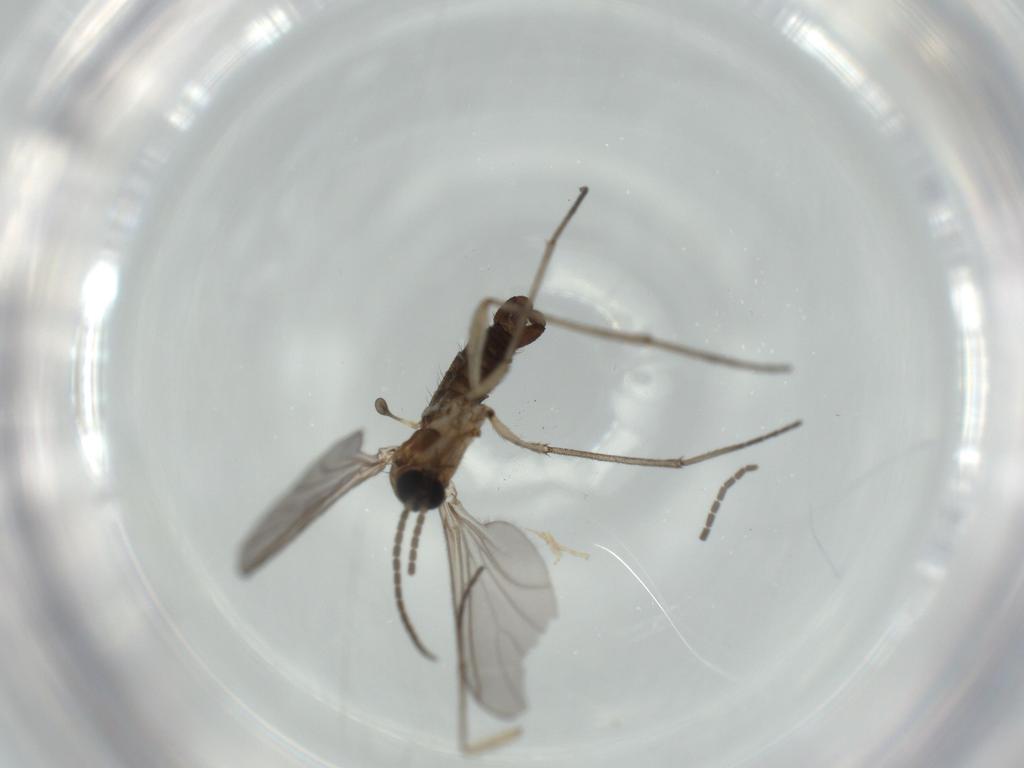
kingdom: Animalia
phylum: Arthropoda
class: Insecta
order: Diptera
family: Sciaridae
